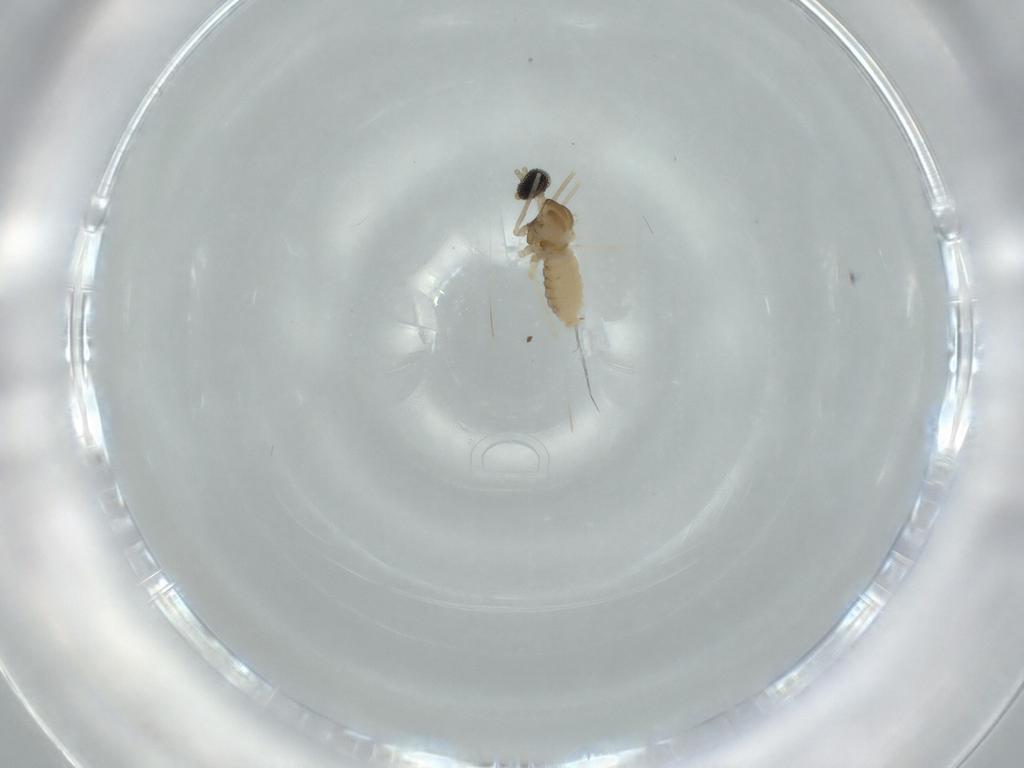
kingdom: Animalia
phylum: Arthropoda
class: Insecta
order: Diptera
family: Cecidomyiidae
